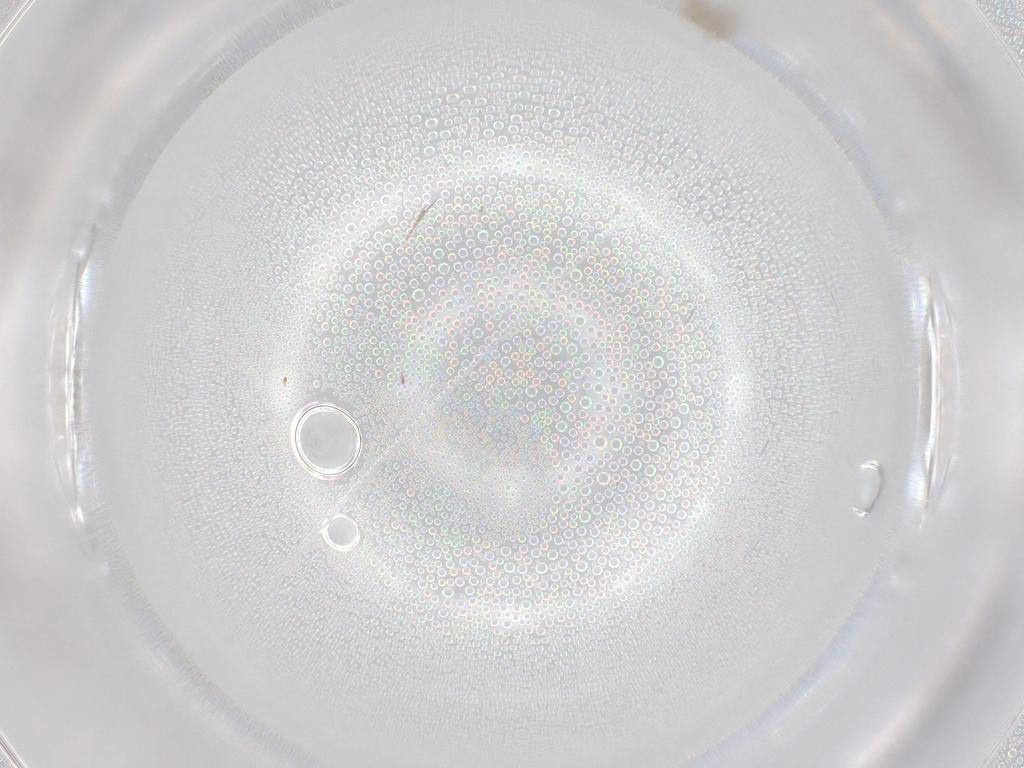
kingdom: Animalia
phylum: Arthropoda
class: Insecta
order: Diptera
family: Cecidomyiidae
